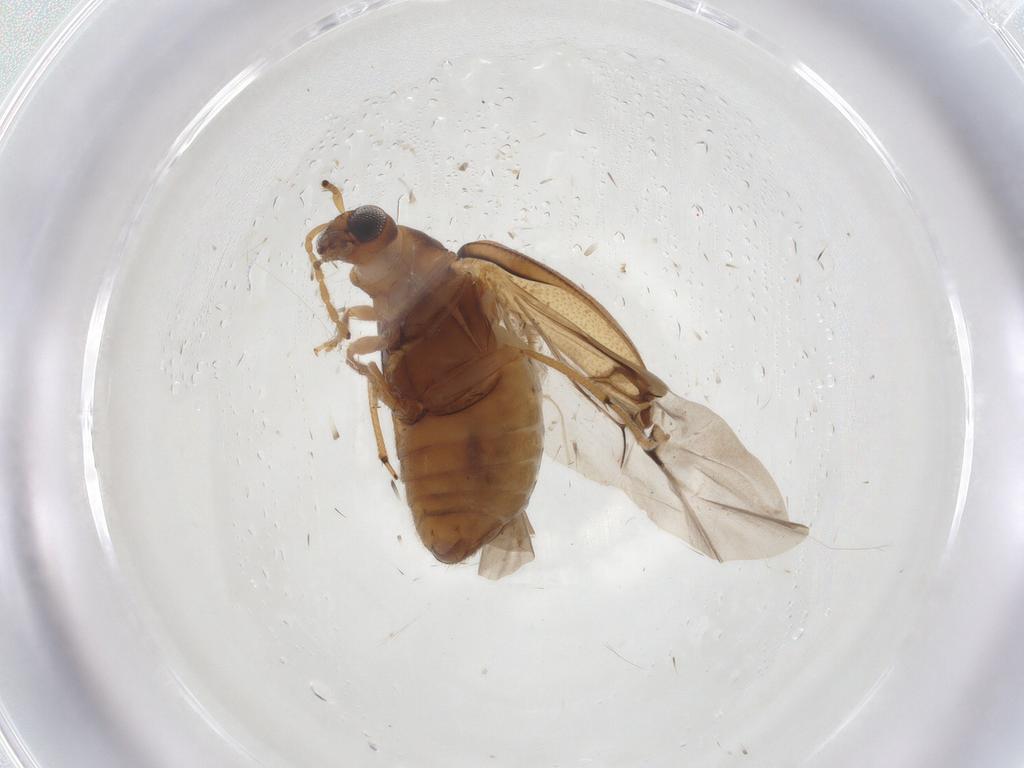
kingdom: Animalia
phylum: Arthropoda
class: Insecta
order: Coleoptera
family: Chrysomelidae
